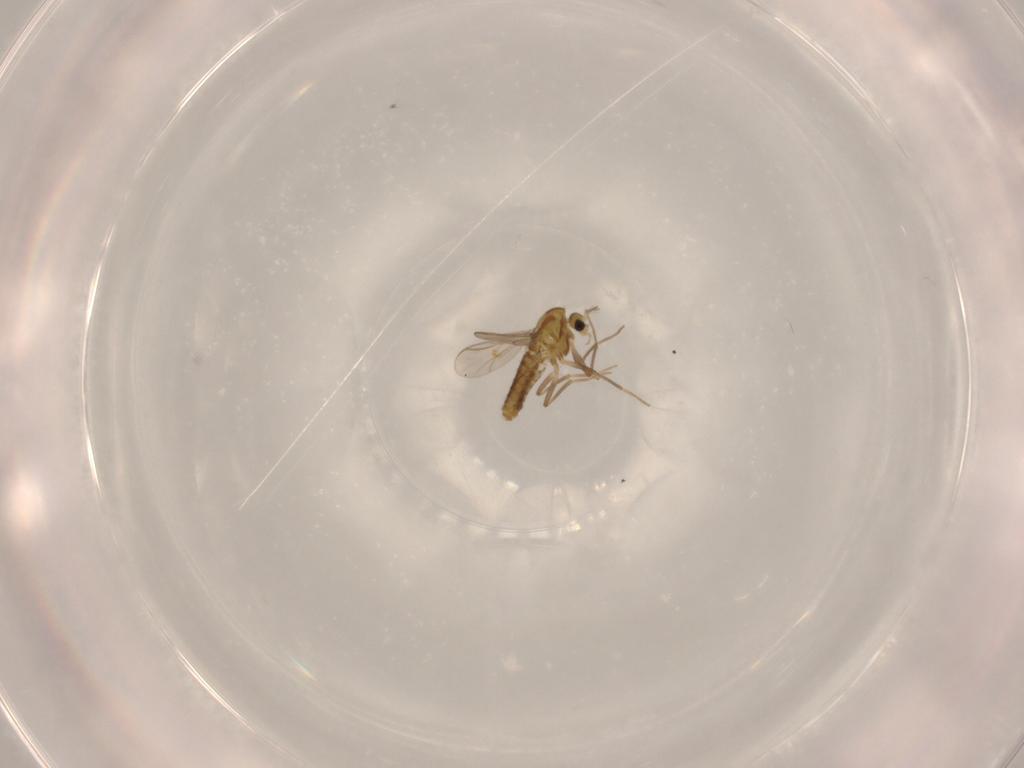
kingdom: Animalia
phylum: Arthropoda
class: Insecta
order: Diptera
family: Chironomidae
